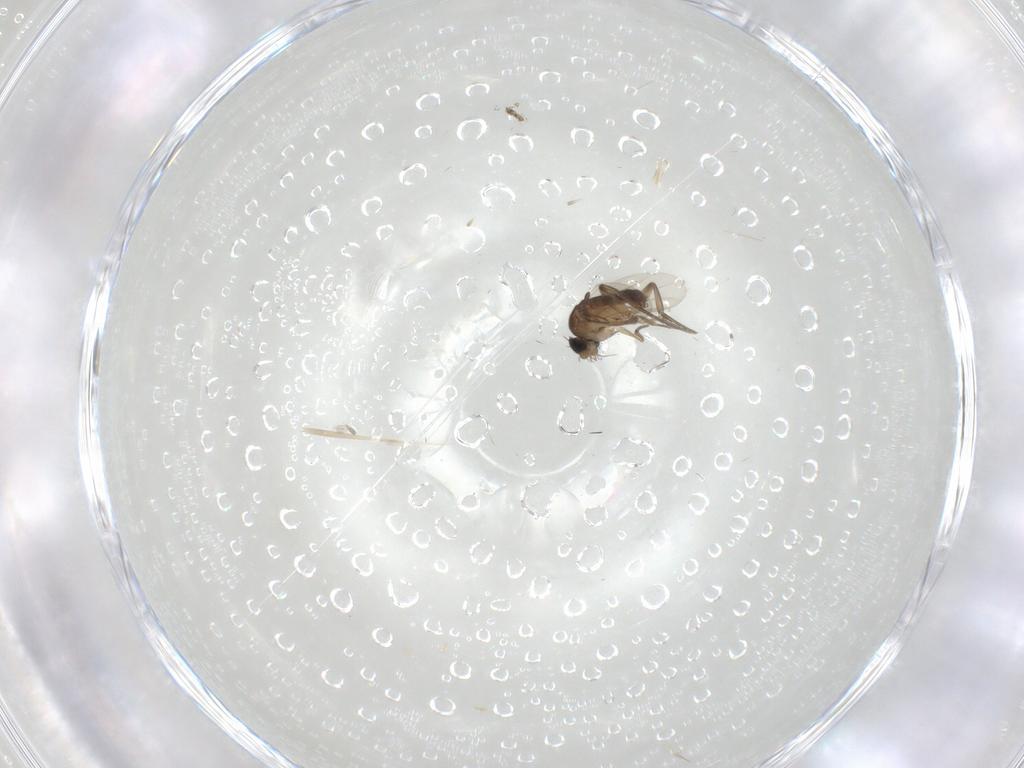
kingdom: Animalia
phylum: Arthropoda
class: Insecta
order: Diptera
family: Phoridae
